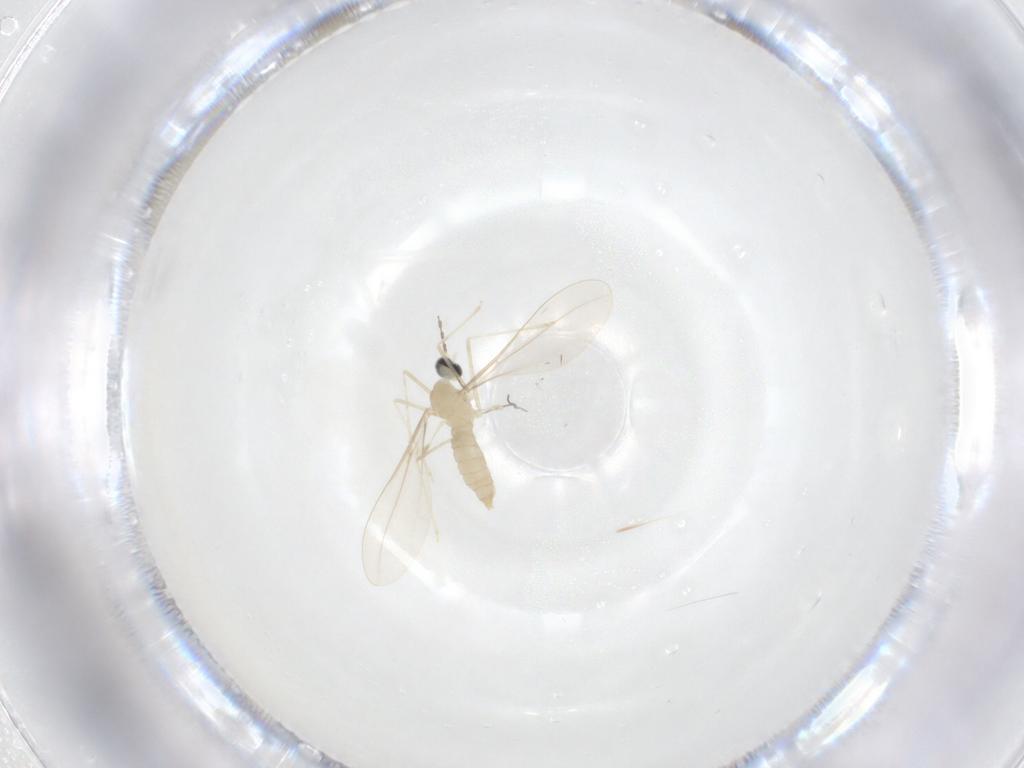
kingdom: Animalia
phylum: Arthropoda
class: Insecta
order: Diptera
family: Cecidomyiidae
